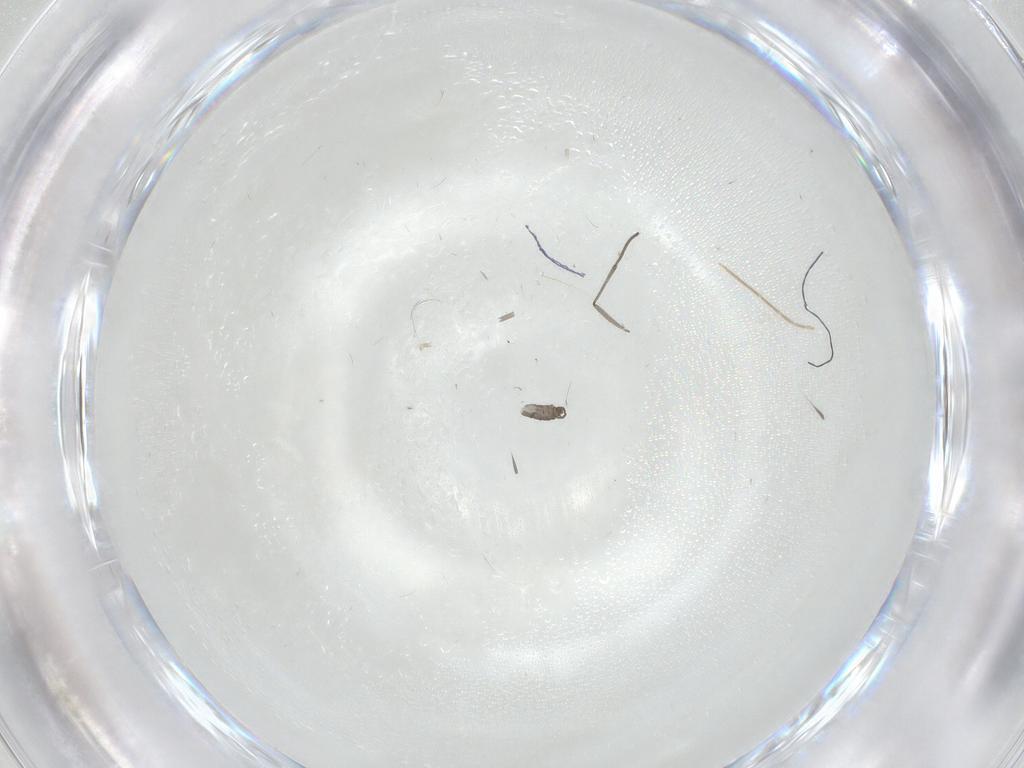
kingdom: Animalia
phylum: Arthropoda
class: Insecta
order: Diptera
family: Chironomidae
